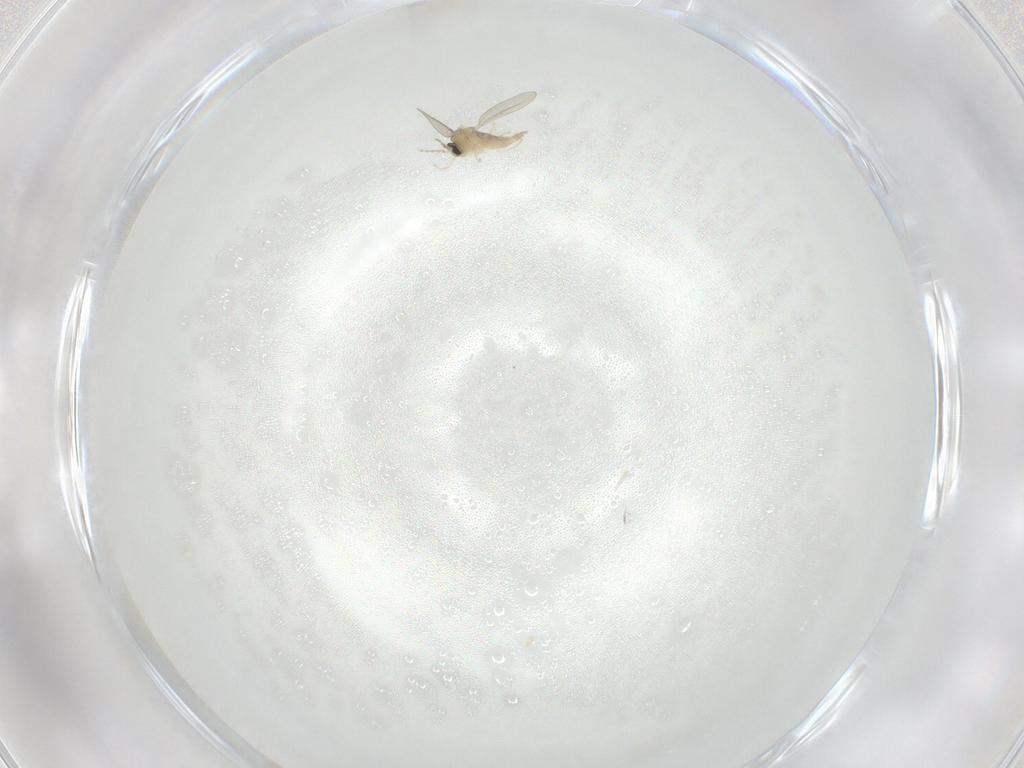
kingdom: Animalia
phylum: Arthropoda
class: Insecta
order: Diptera
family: Cecidomyiidae
